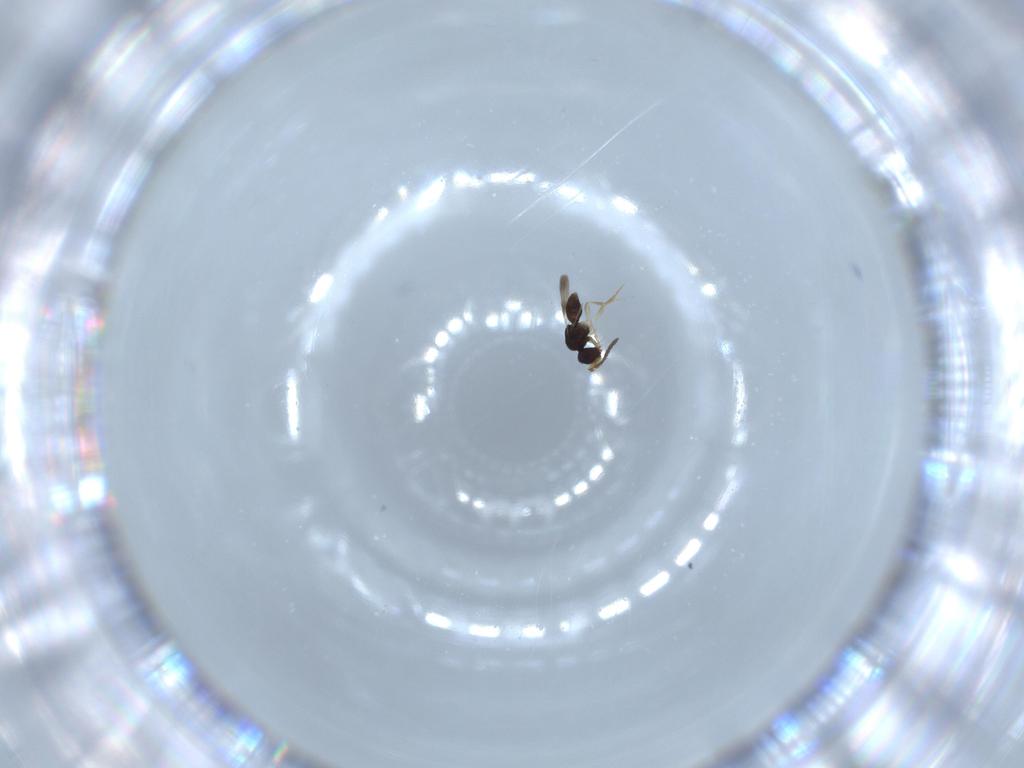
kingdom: Animalia
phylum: Arthropoda
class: Insecta
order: Hymenoptera
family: Ceraphronidae
